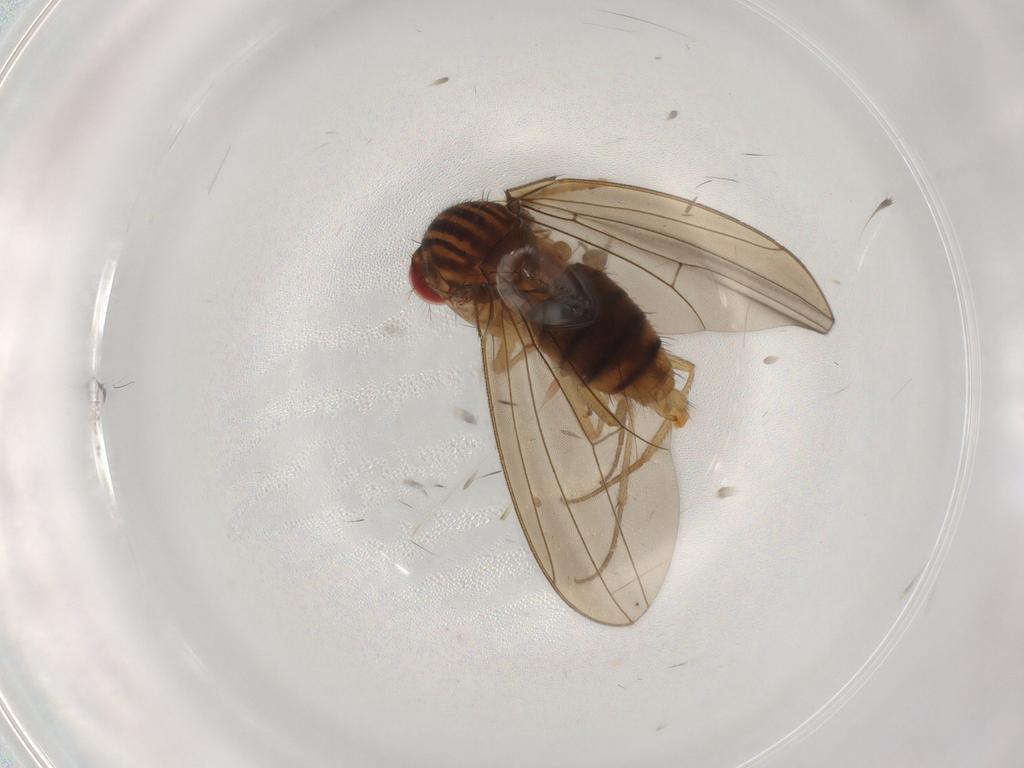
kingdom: Animalia
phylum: Arthropoda
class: Insecta
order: Diptera
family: Drosophilidae
